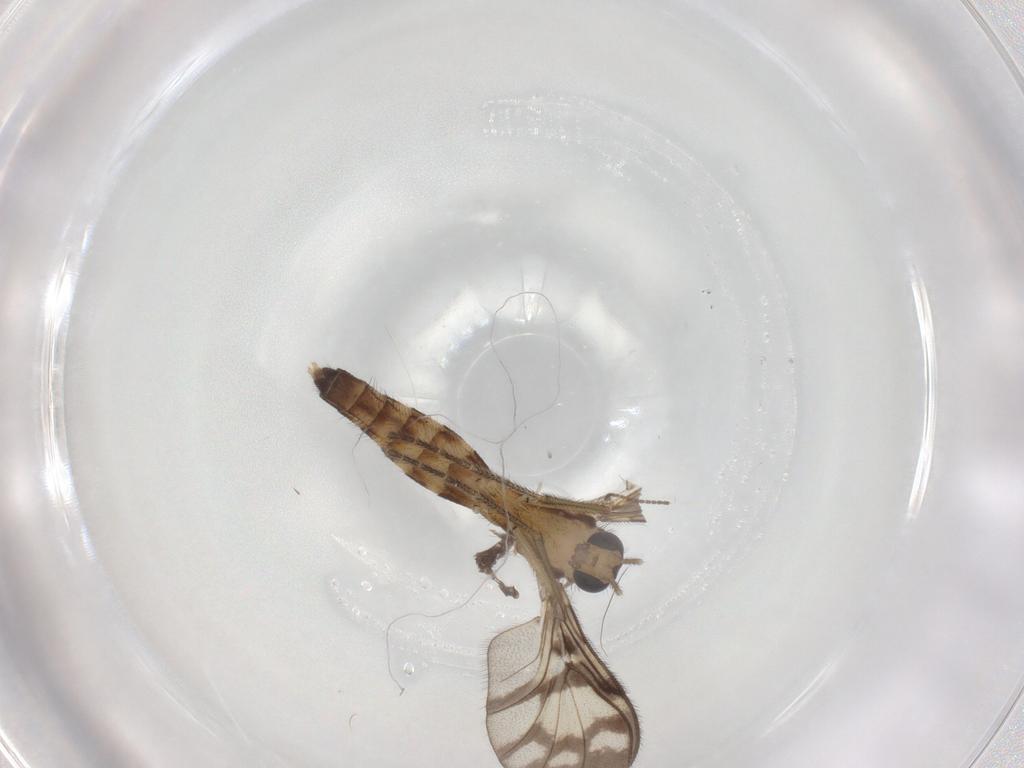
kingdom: Animalia
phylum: Arthropoda
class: Insecta
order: Diptera
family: Keroplatidae
